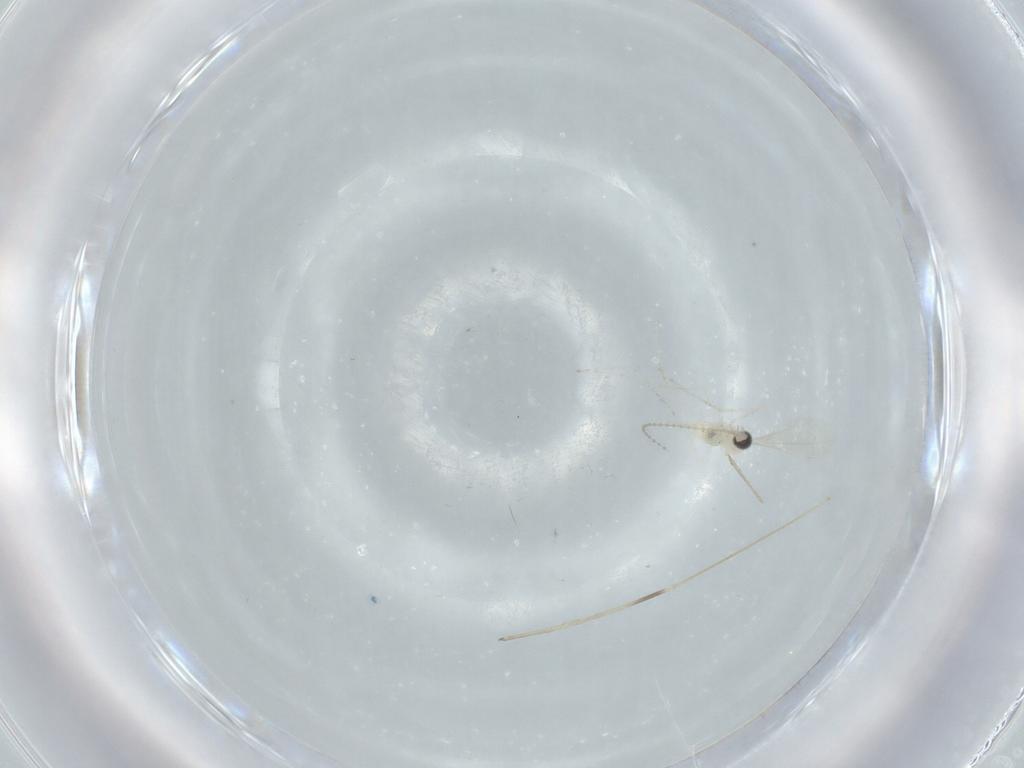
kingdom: Animalia
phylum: Arthropoda
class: Insecta
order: Diptera
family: Cecidomyiidae
